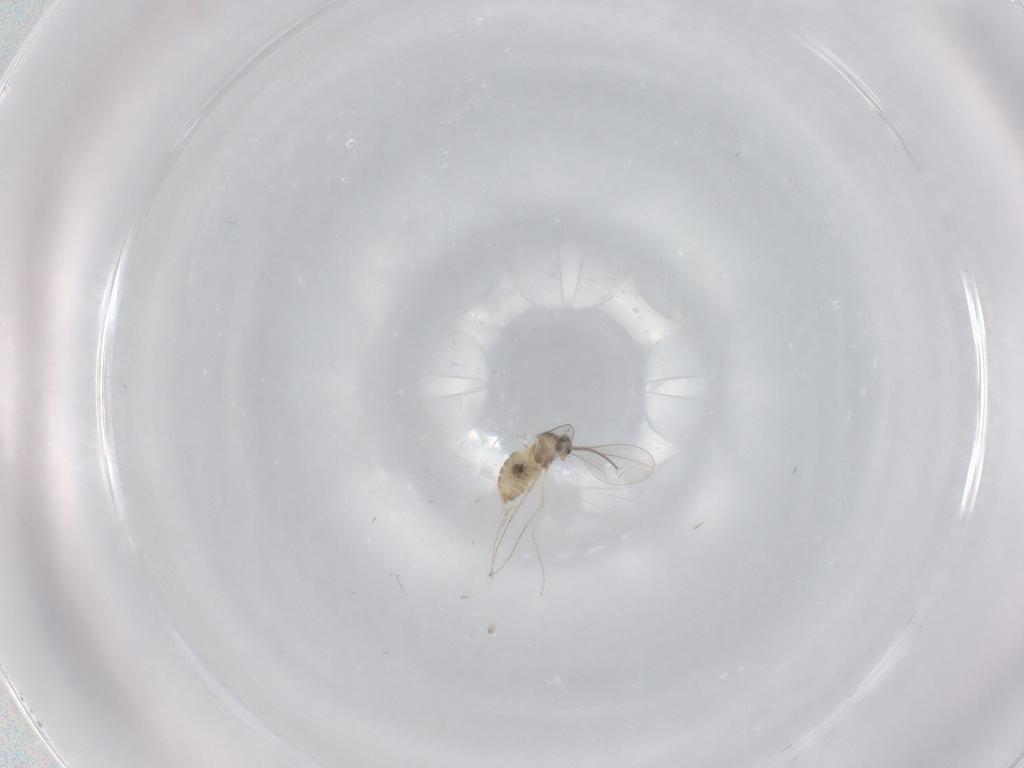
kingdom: Animalia
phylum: Arthropoda
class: Insecta
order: Diptera
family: Cecidomyiidae
